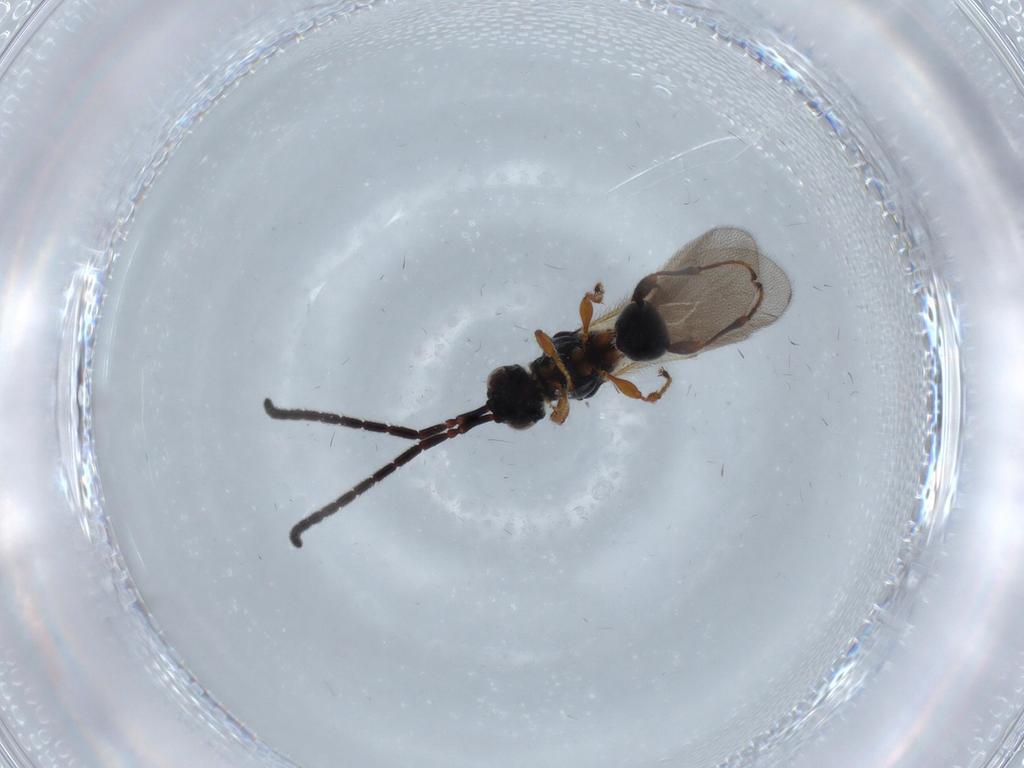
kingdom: Animalia
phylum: Arthropoda
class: Insecta
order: Hymenoptera
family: Diapriidae
